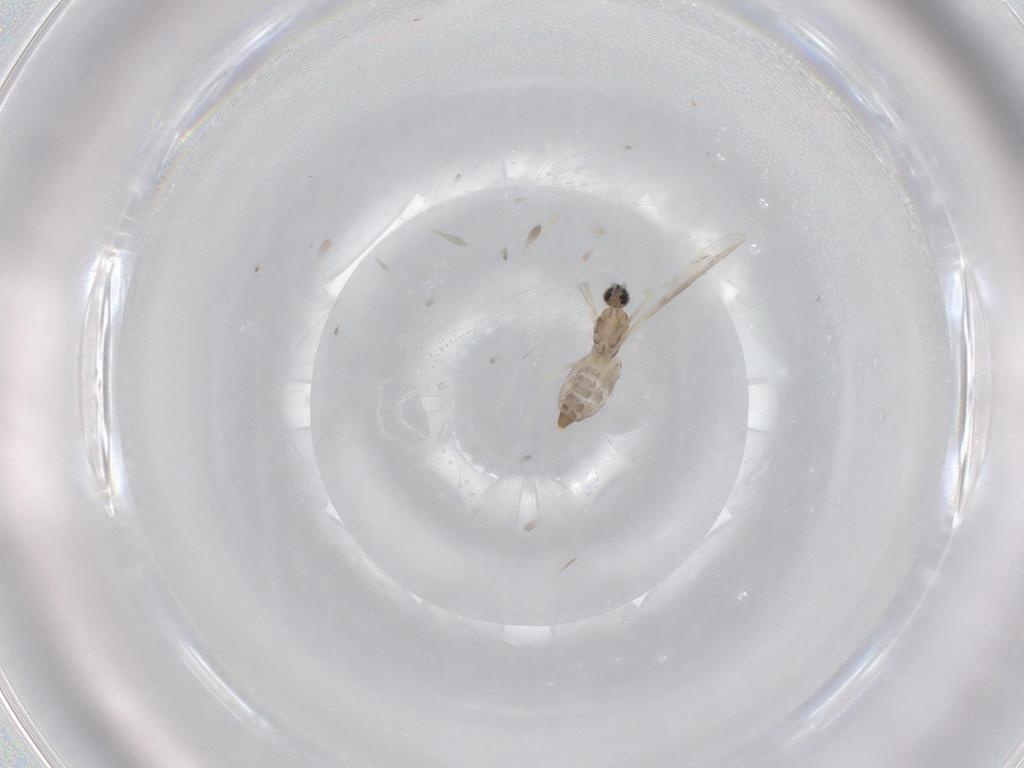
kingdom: Animalia
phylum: Arthropoda
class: Insecta
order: Diptera
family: Cecidomyiidae
